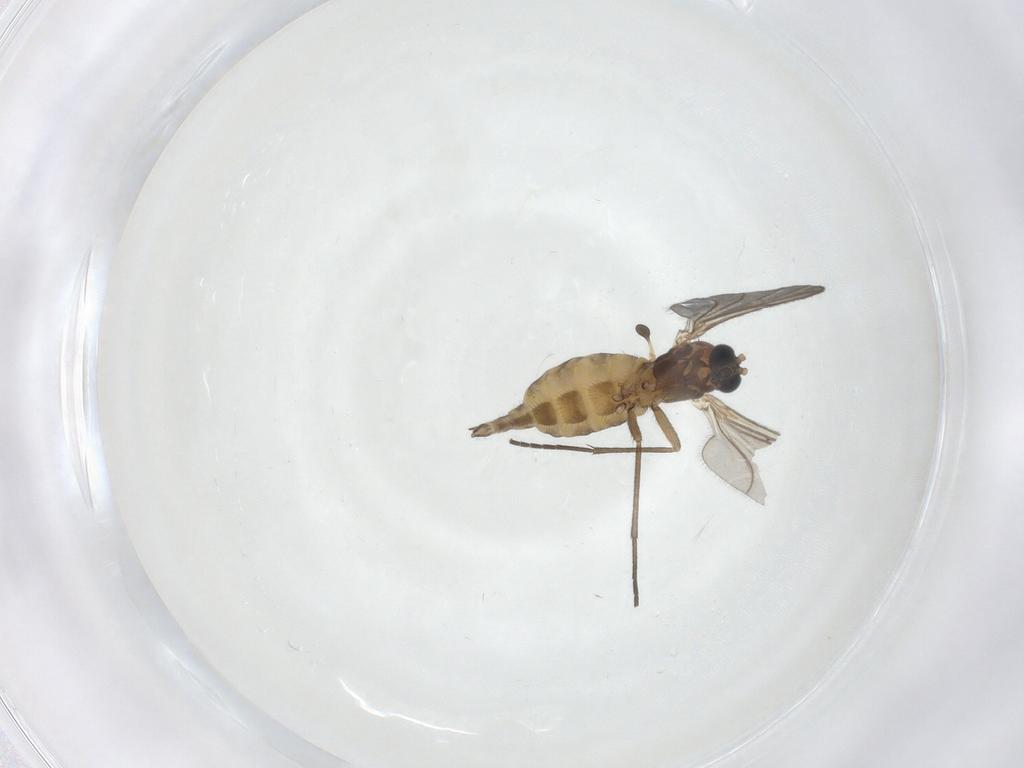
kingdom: Animalia
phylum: Arthropoda
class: Insecta
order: Diptera
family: Sciaridae
